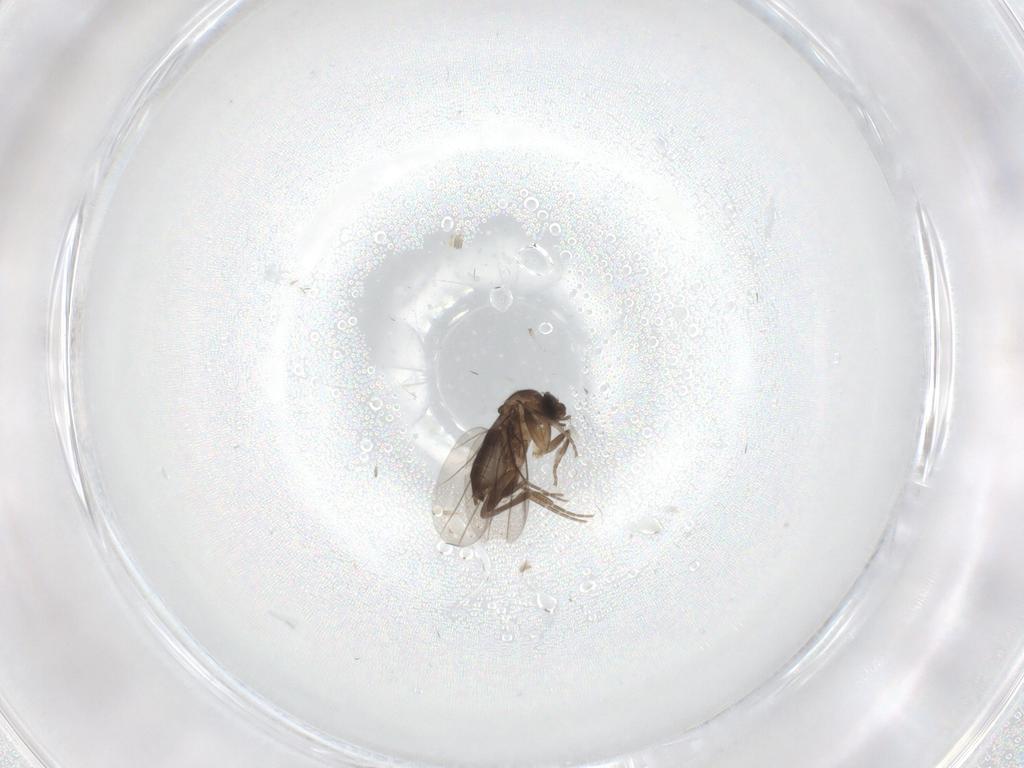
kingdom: Animalia
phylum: Arthropoda
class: Insecta
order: Diptera
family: Phoridae
